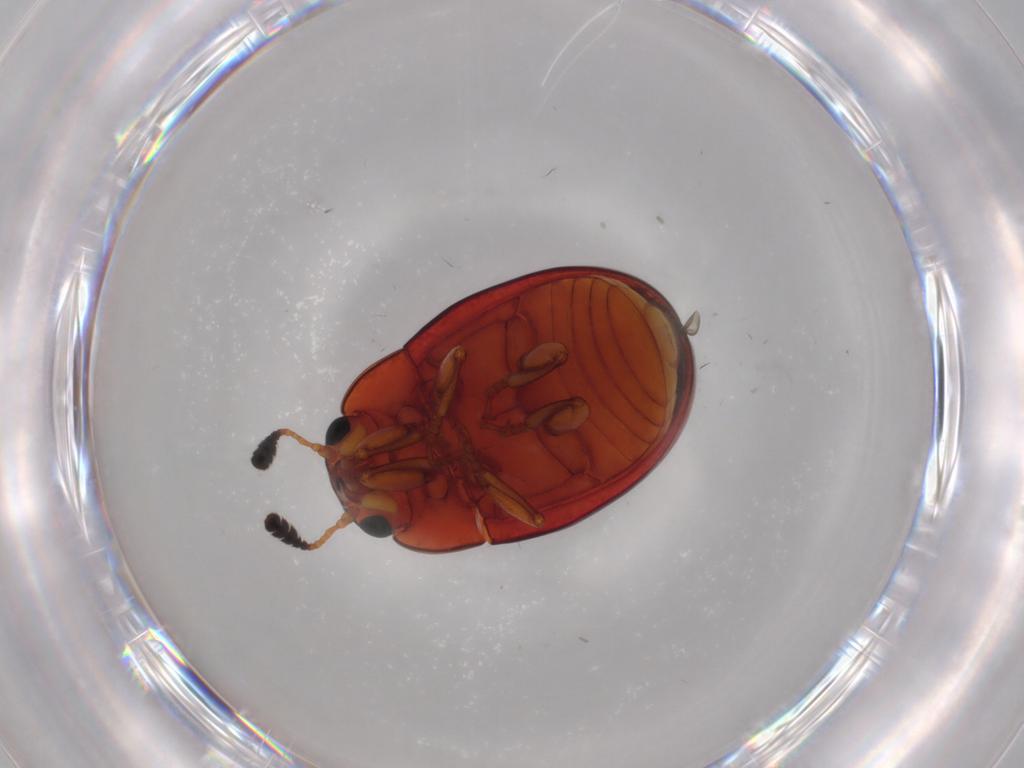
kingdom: Animalia
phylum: Arthropoda
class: Insecta
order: Coleoptera
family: Erotylidae
